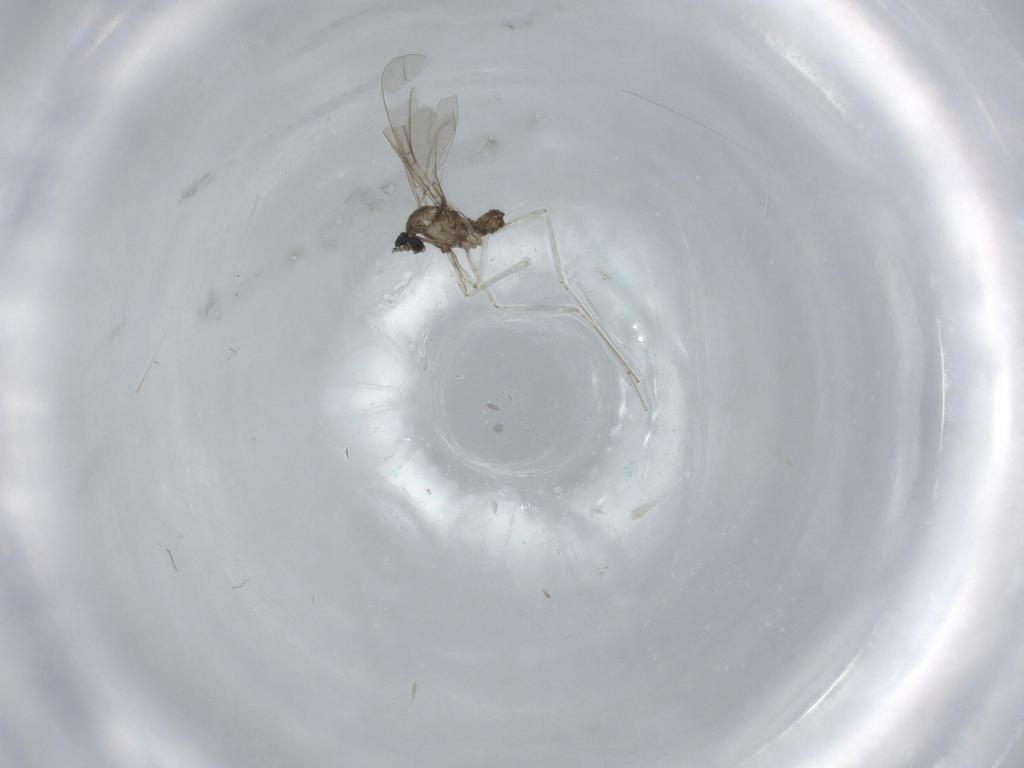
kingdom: Animalia
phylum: Arthropoda
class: Insecta
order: Diptera
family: Cecidomyiidae
